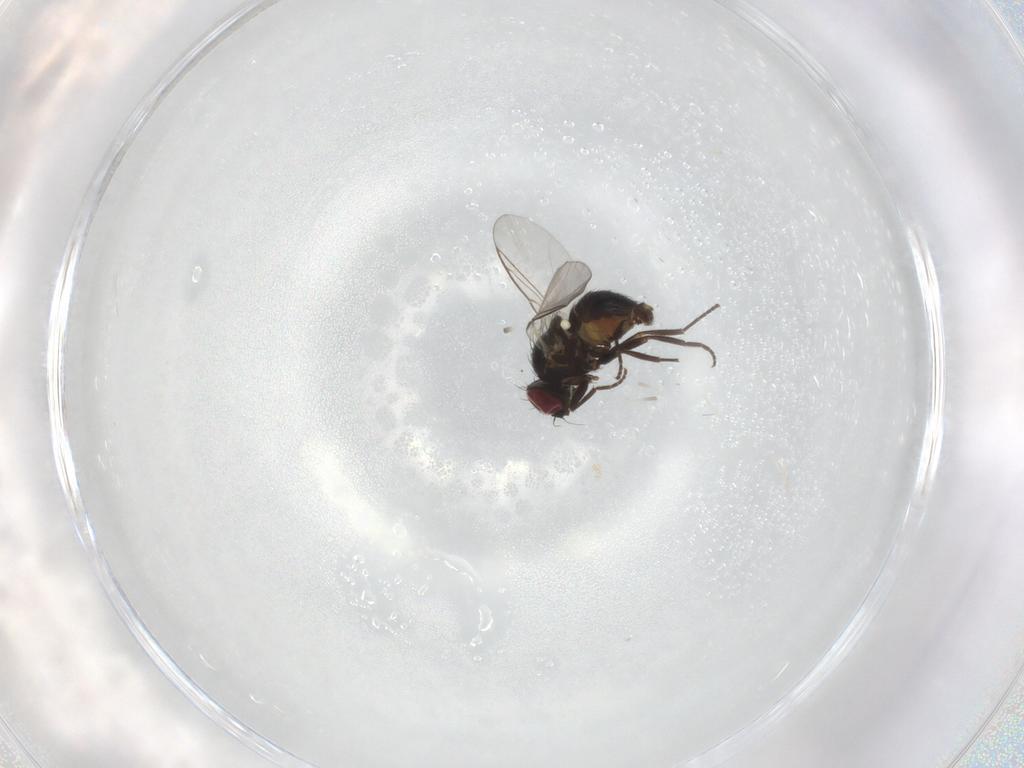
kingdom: Animalia
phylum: Arthropoda
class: Insecta
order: Diptera
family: Agromyzidae
